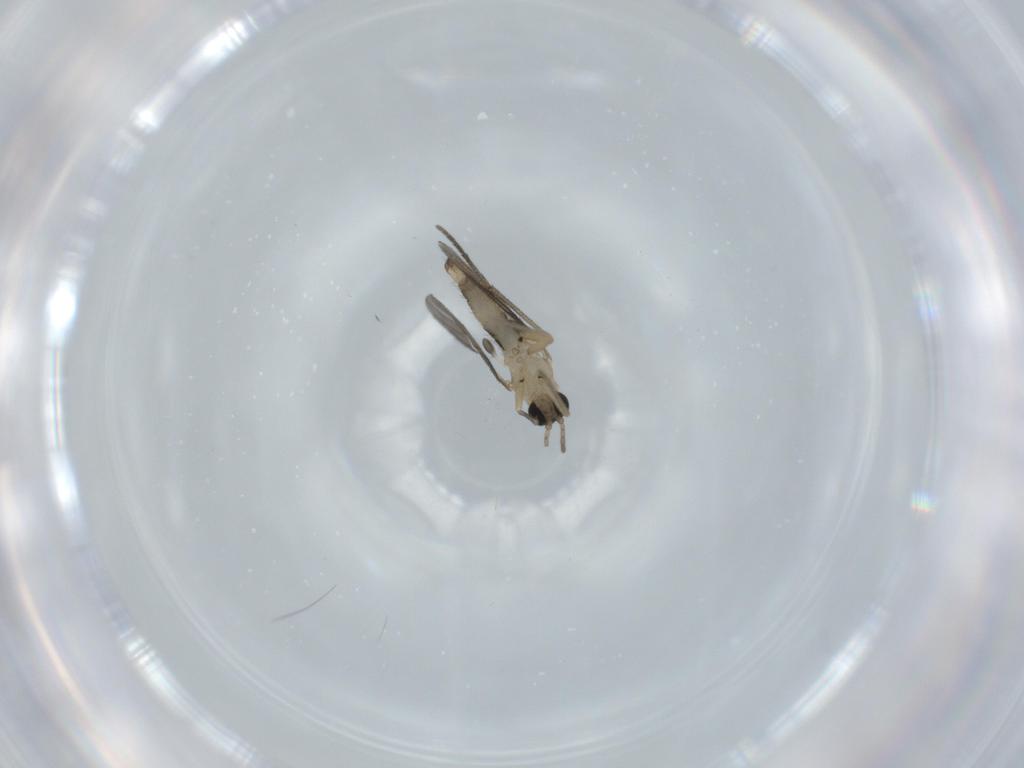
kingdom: Animalia
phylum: Arthropoda
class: Insecta
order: Diptera
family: Sciaridae
